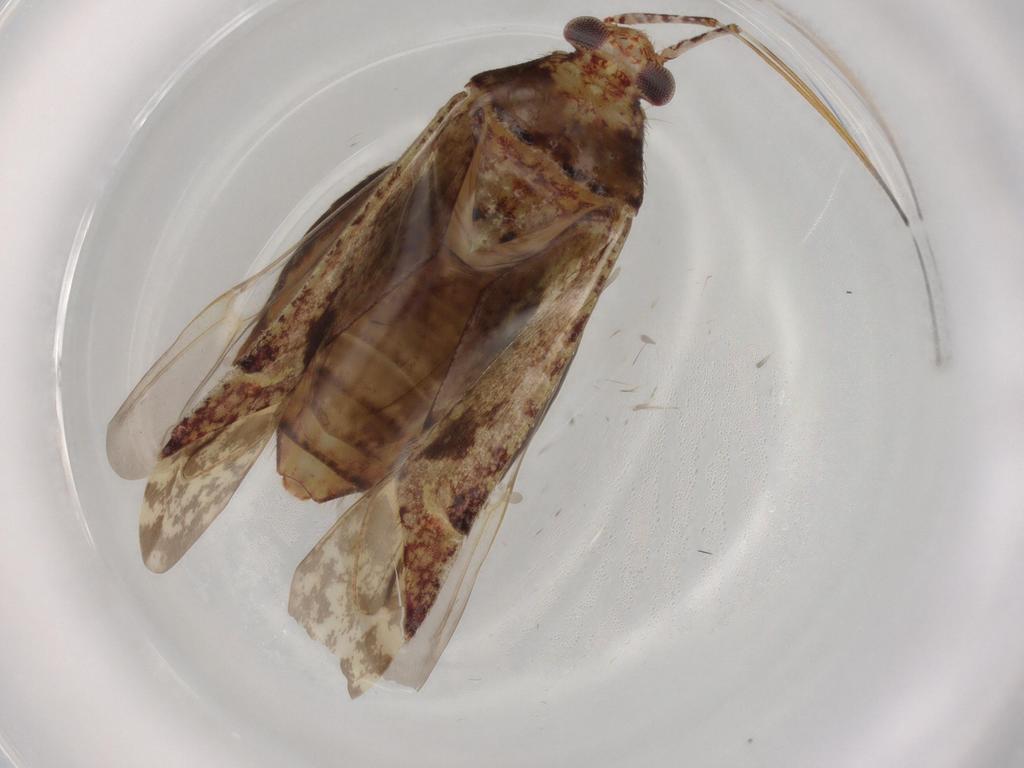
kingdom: Animalia
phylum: Arthropoda
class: Insecta
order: Hemiptera
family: Miridae
